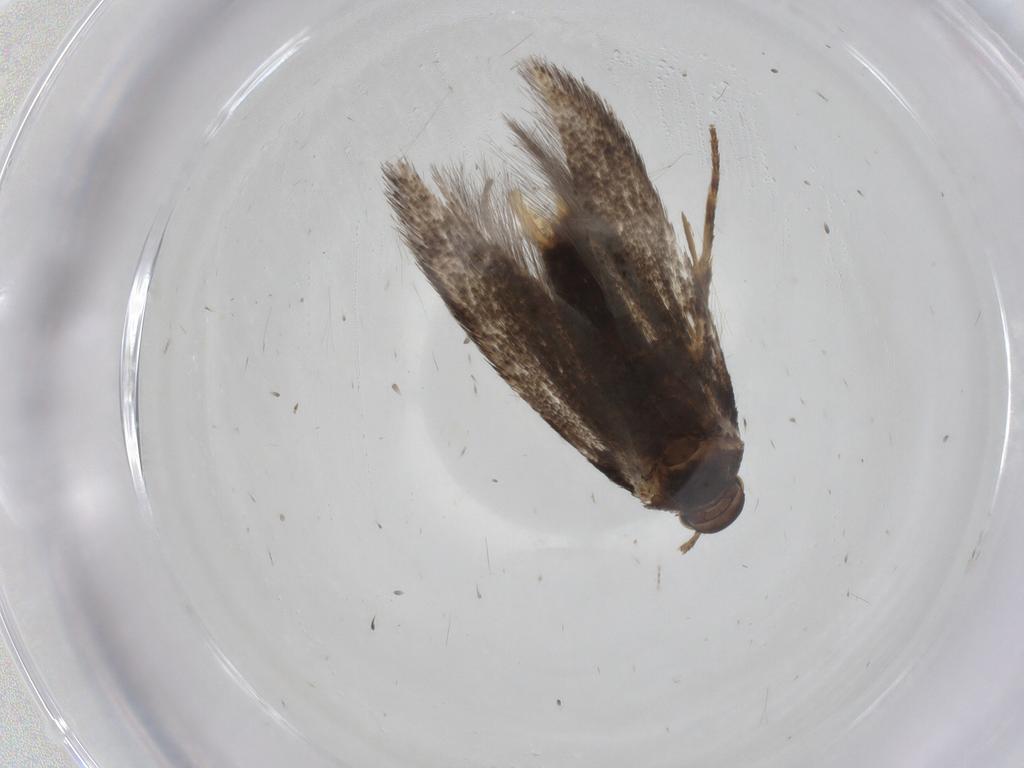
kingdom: Animalia
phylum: Arthropoda
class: Insecta
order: Lepidoptera
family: Elachistidae
